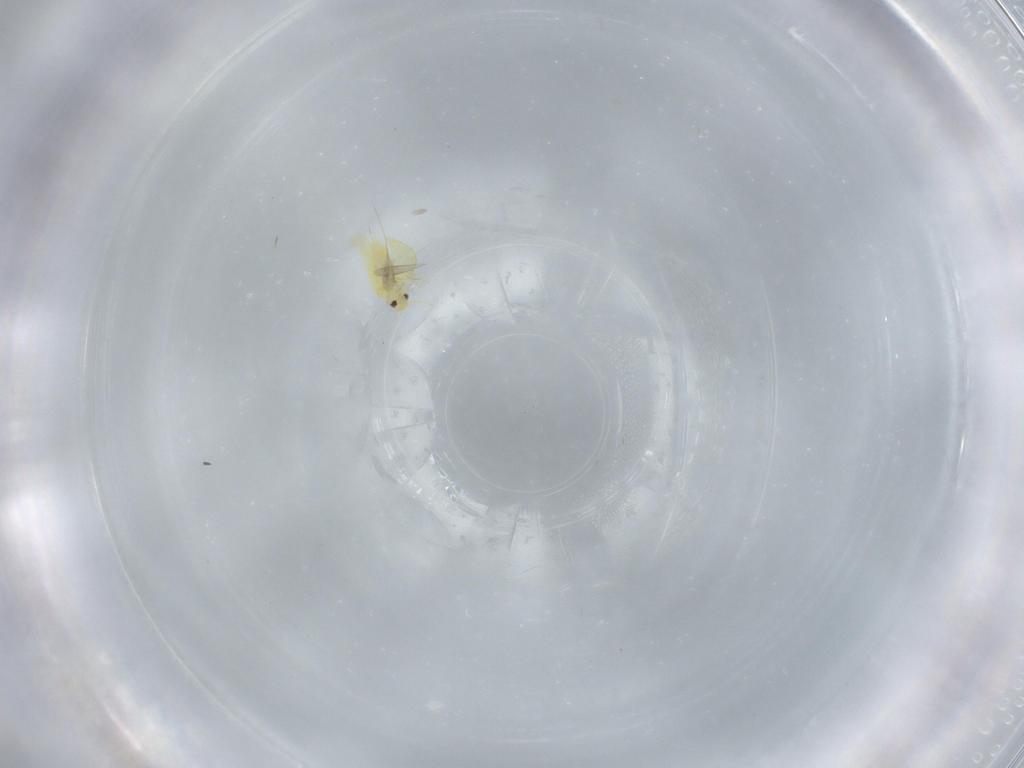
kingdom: Animalia
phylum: Arthropoda
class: Insecta
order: Hemiptera
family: Aleyrodidae
